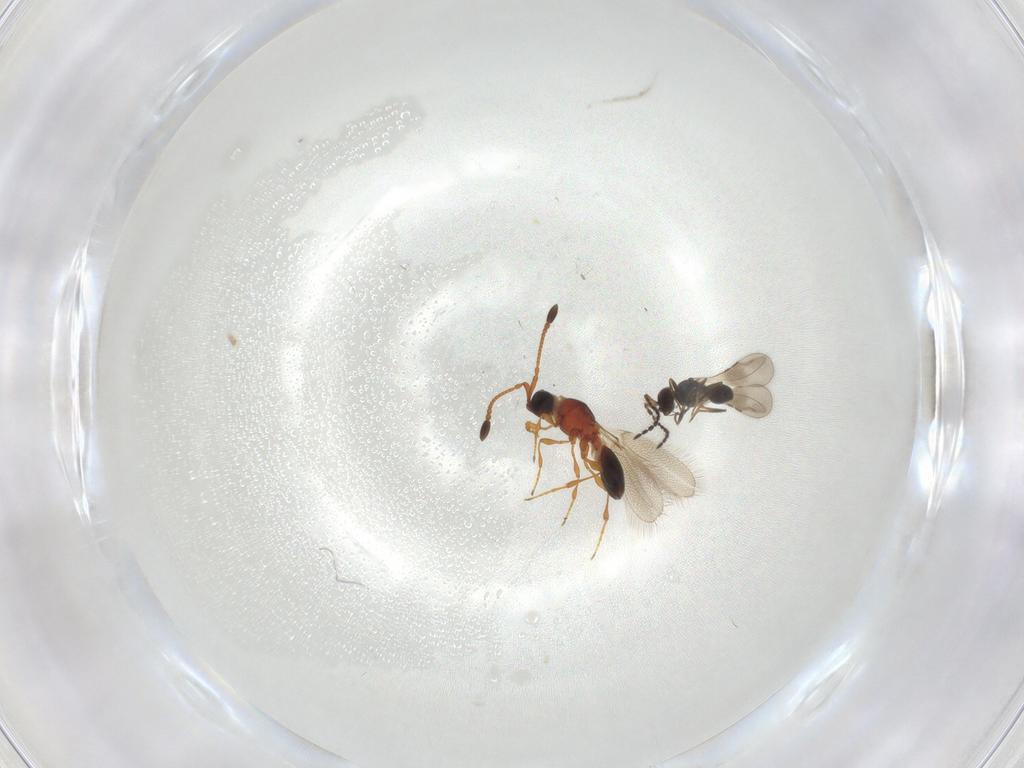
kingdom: Animalia
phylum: Arthropoda
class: Insecta
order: Hymenoptera
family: Diapriidae
